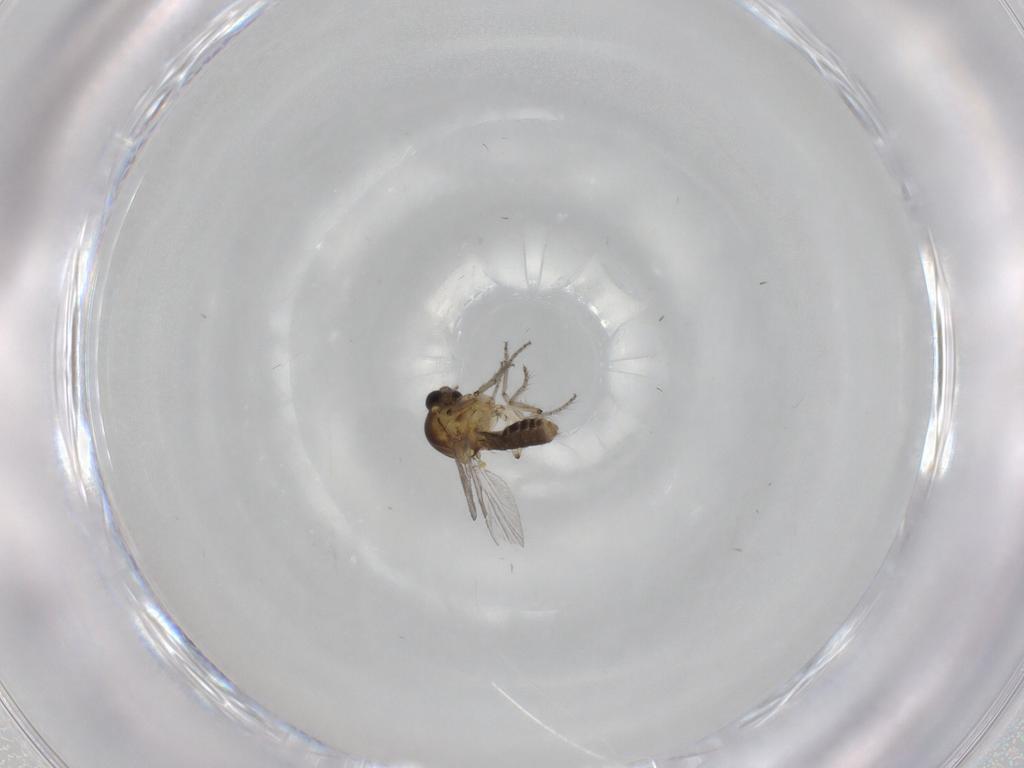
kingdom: Animalia
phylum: Arthropoda
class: Insecta
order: Diptera
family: Ceratopogonidae
